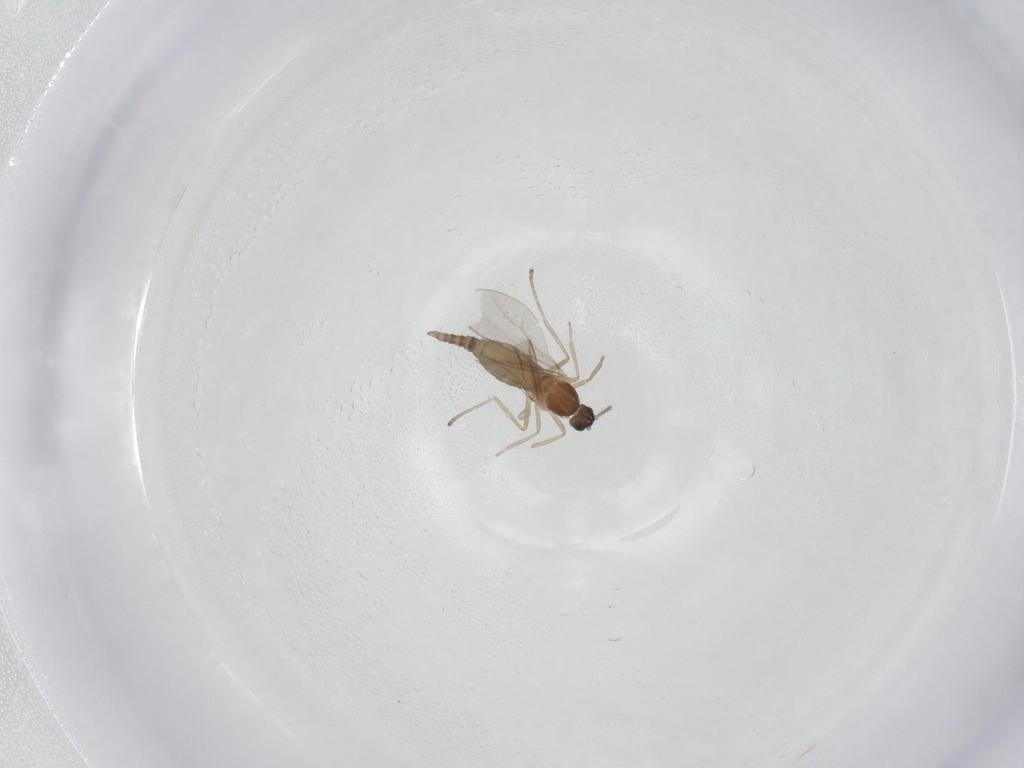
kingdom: Animalia
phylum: Arthropoda
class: Insecta
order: Diptera
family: Cecidomyiidae
